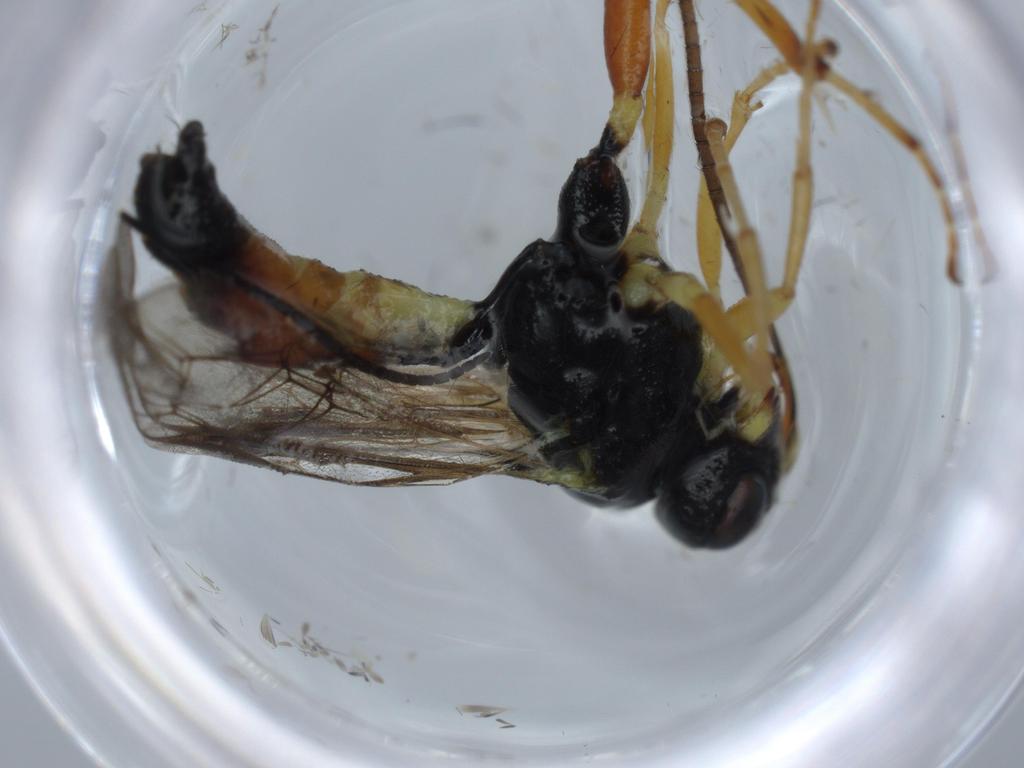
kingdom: Animalia
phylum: Arthropoda
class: Insecta
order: Hymenoptera
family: Ichneumonidae
